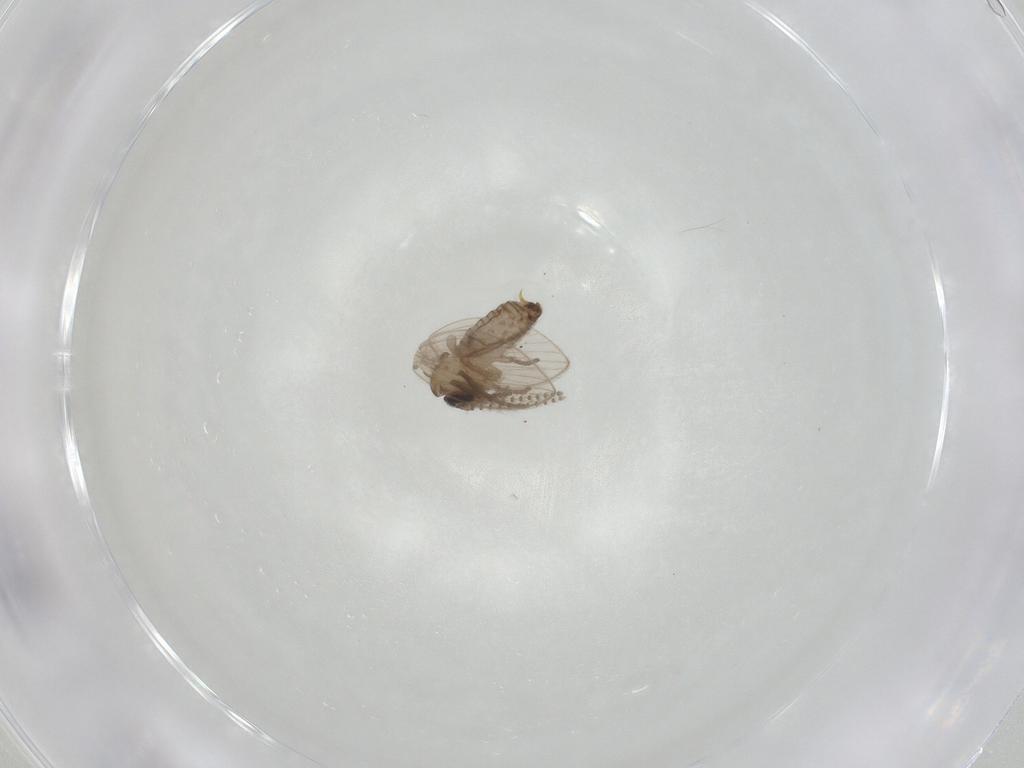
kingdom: Animalia
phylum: Arthropoda
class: Insecta
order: Diptera
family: Psychodidae
